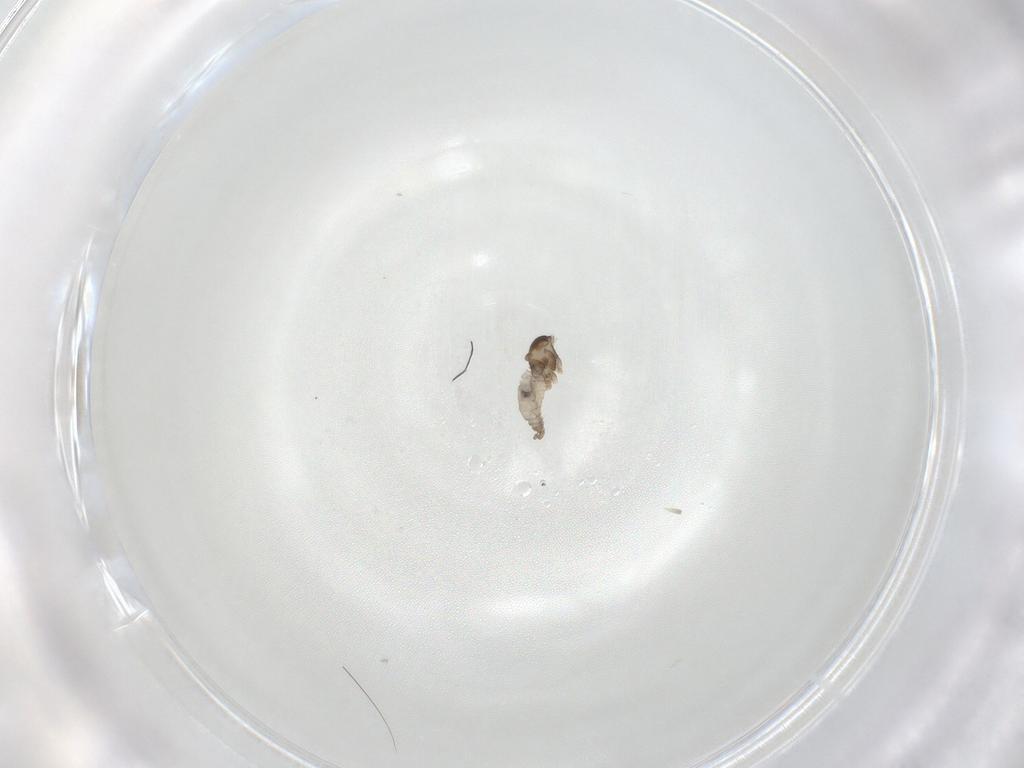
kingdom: Animalia
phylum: Arthropoda
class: Insecta
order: Diptera
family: Cecidomyiidae
